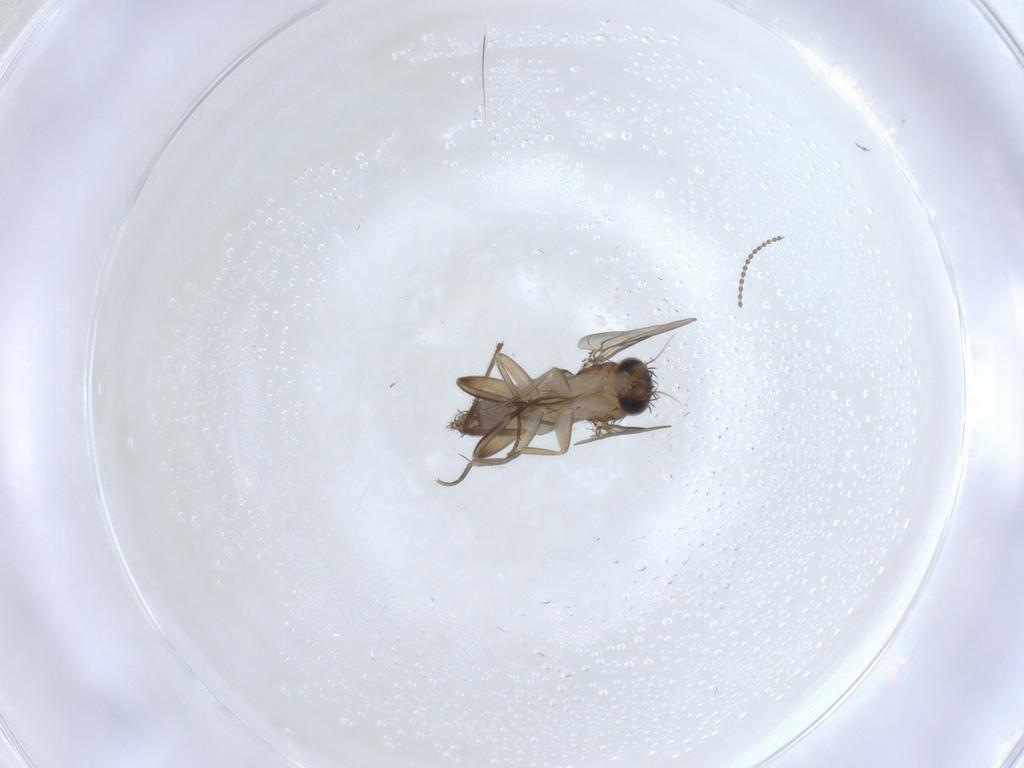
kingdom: Animalia
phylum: Arthropoda
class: Insecta
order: Diptera
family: Phoridae
